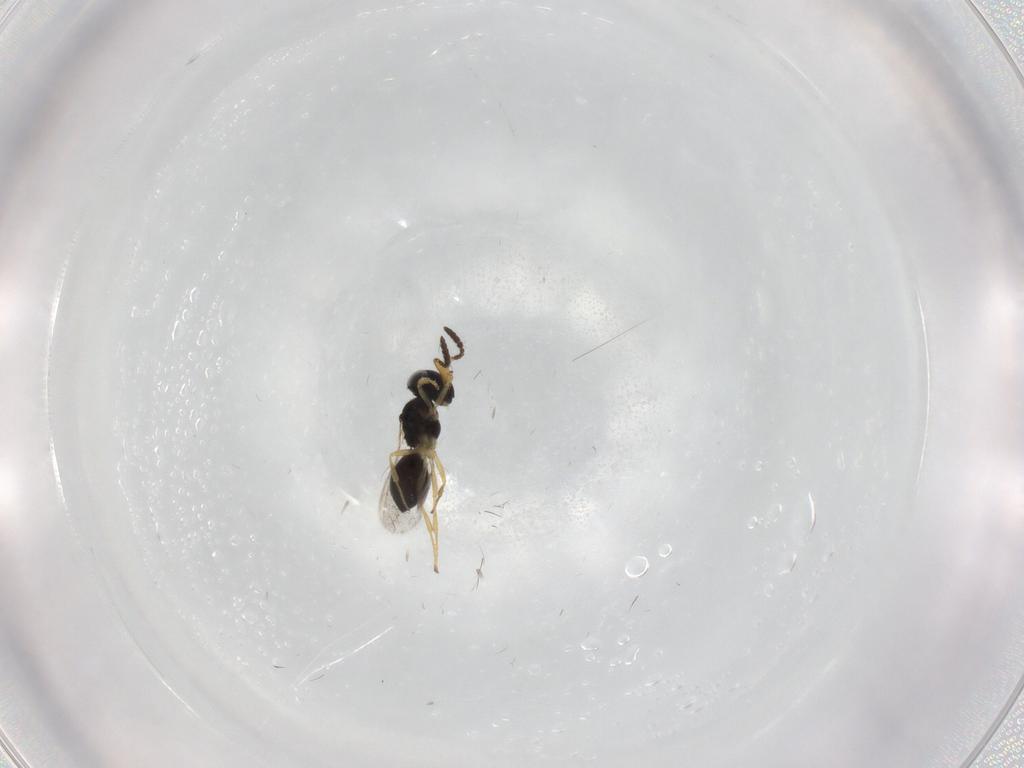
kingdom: Animalia
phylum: Arthropoda
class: Insecta
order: Hymenoptera
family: Scelionidae
